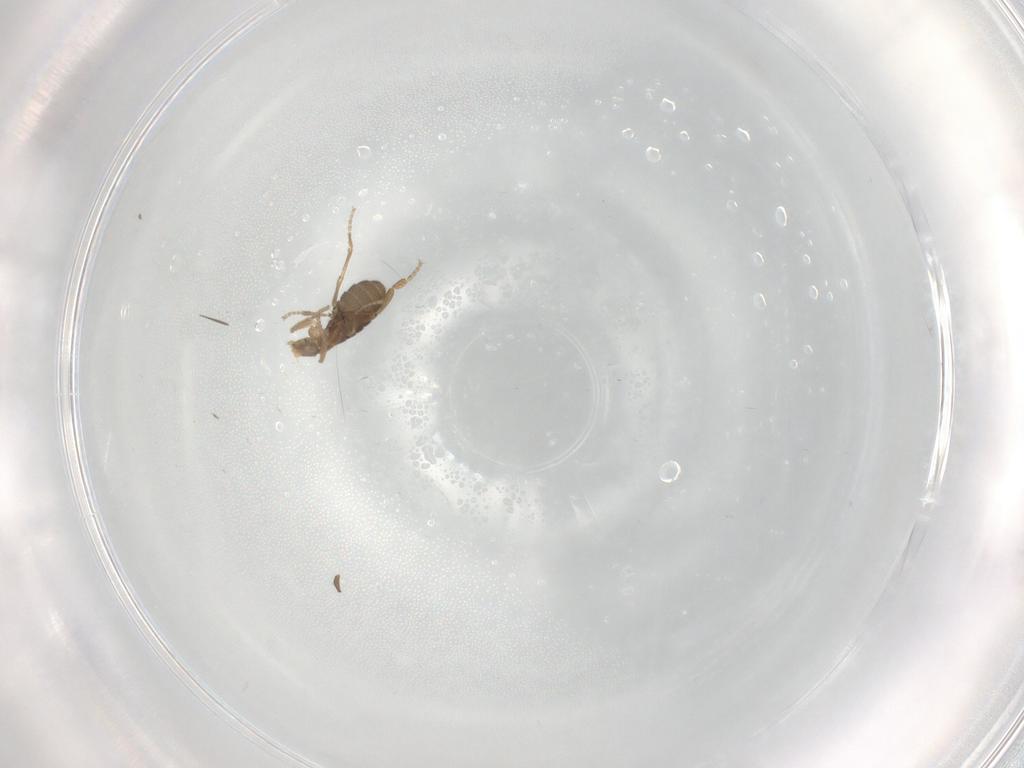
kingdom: Animalia
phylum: Arthropoda
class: Insecta
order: Diptera
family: Phoridae
